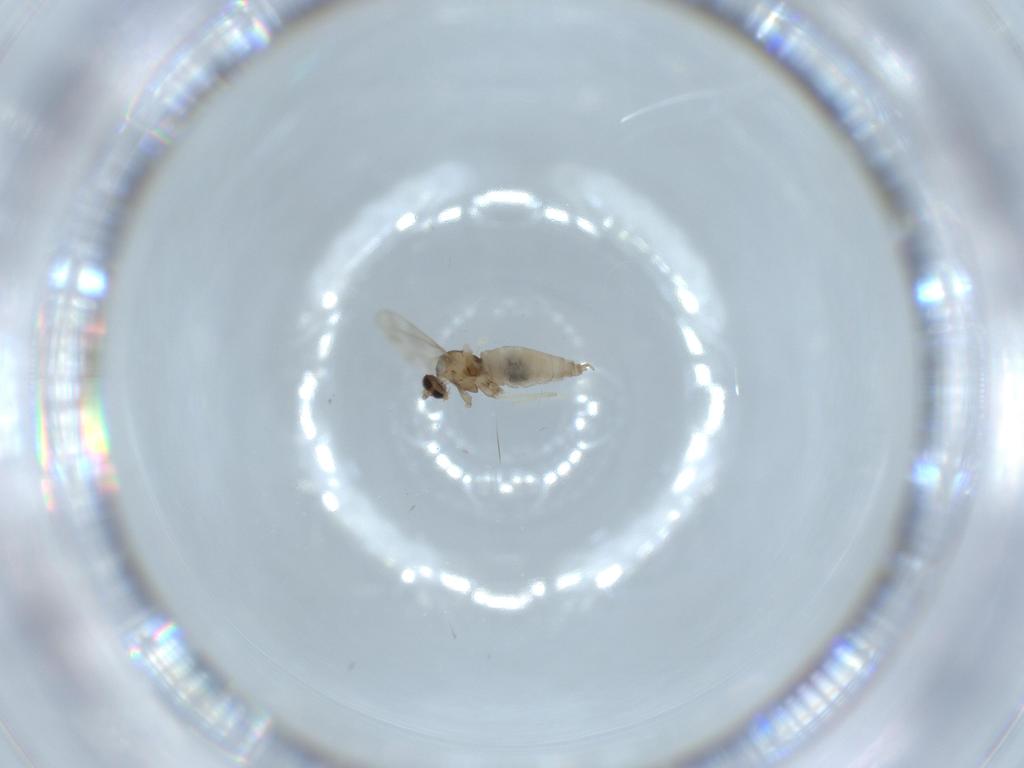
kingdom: Animalia
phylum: Arthropoda
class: Insecta
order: Diptera
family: Cecidomyiidae
